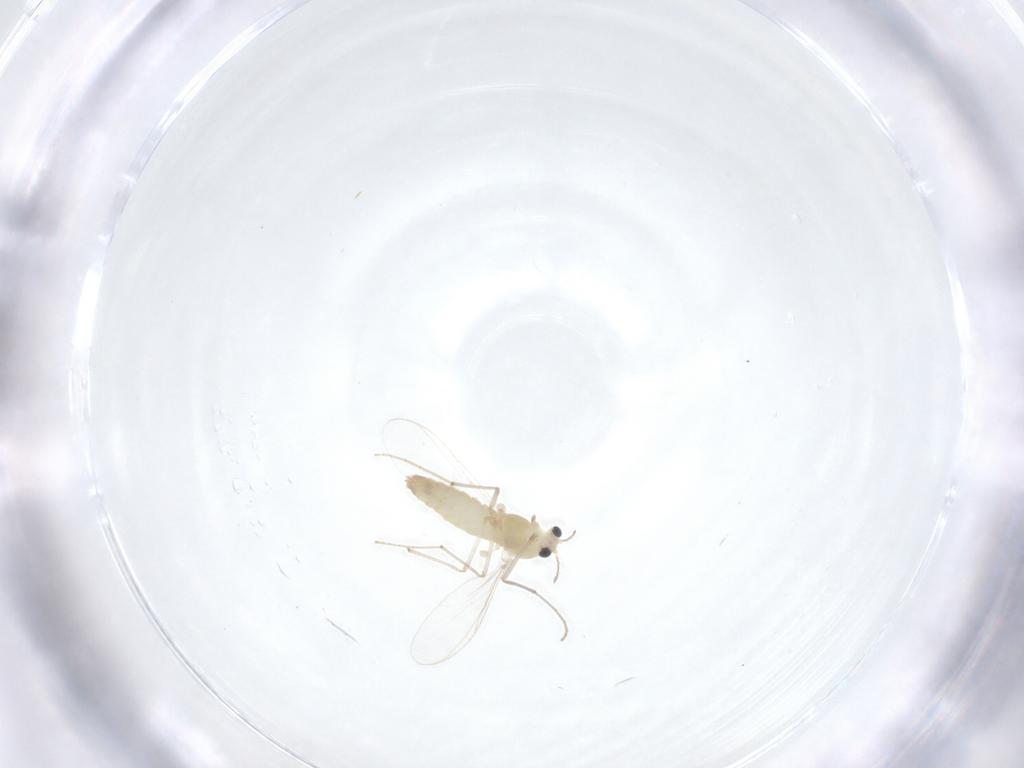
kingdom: Animalia
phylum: Arthropoda
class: Insecta
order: Diptera
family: Chironomidae
